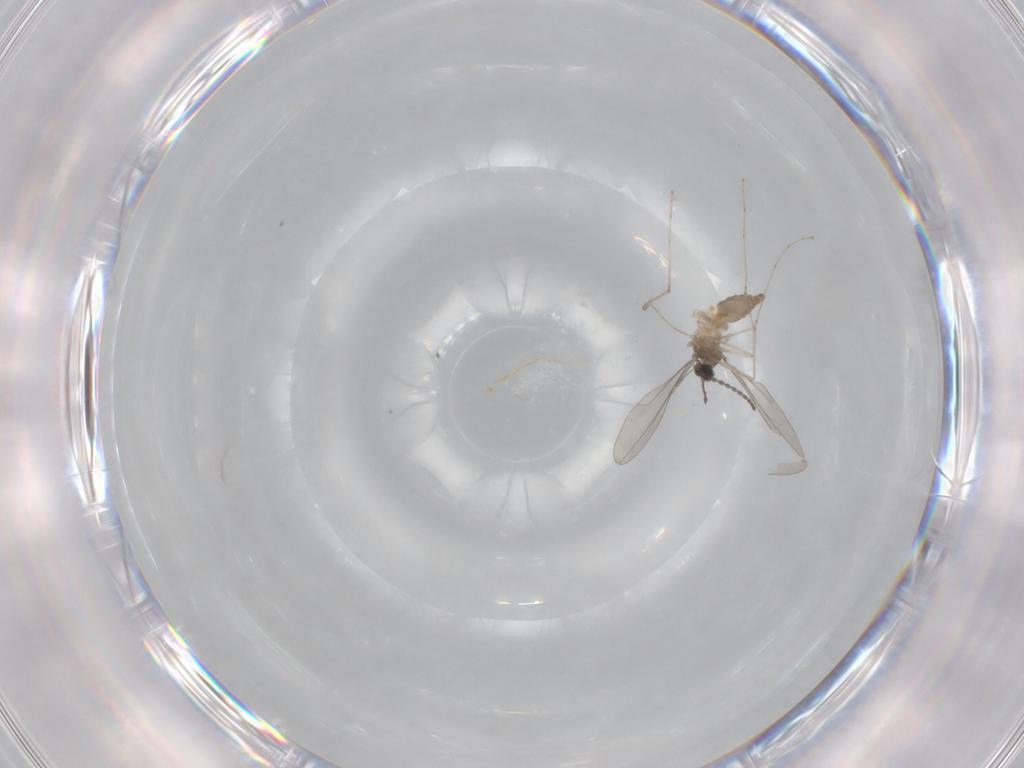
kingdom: Animalia
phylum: Arthropoda
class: Insecta
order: Diptera
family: Cecidomyiidae
